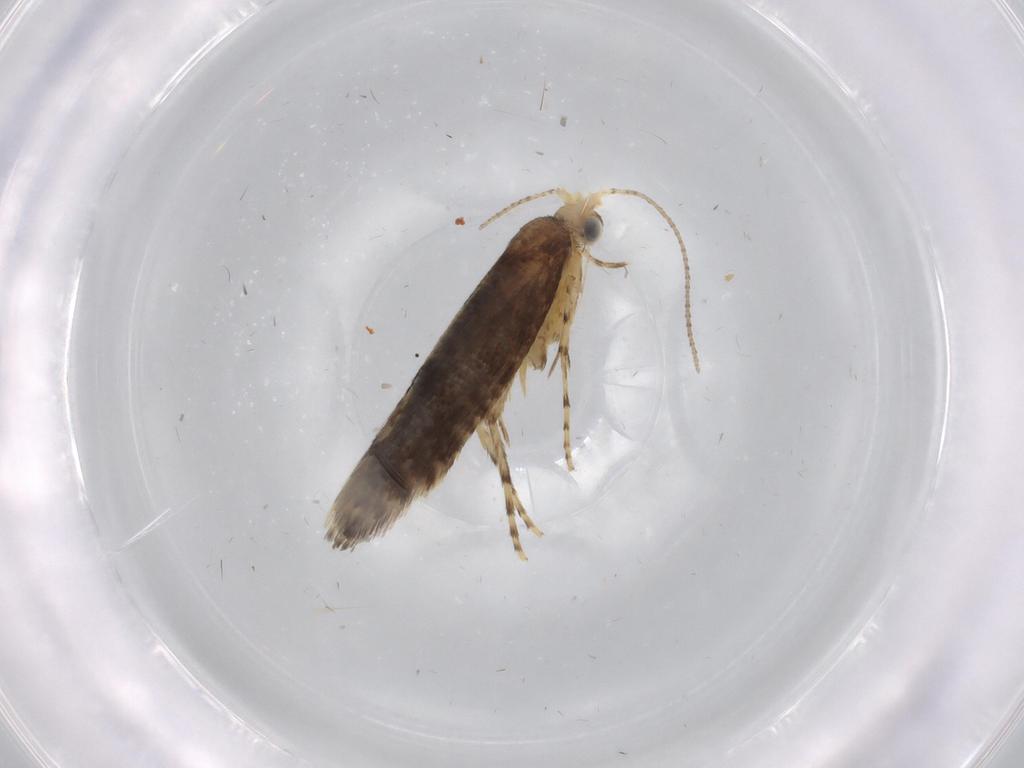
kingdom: Animalia
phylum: Arthropoda
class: Insecta
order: Lepidoptera
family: Argyresthiidae
